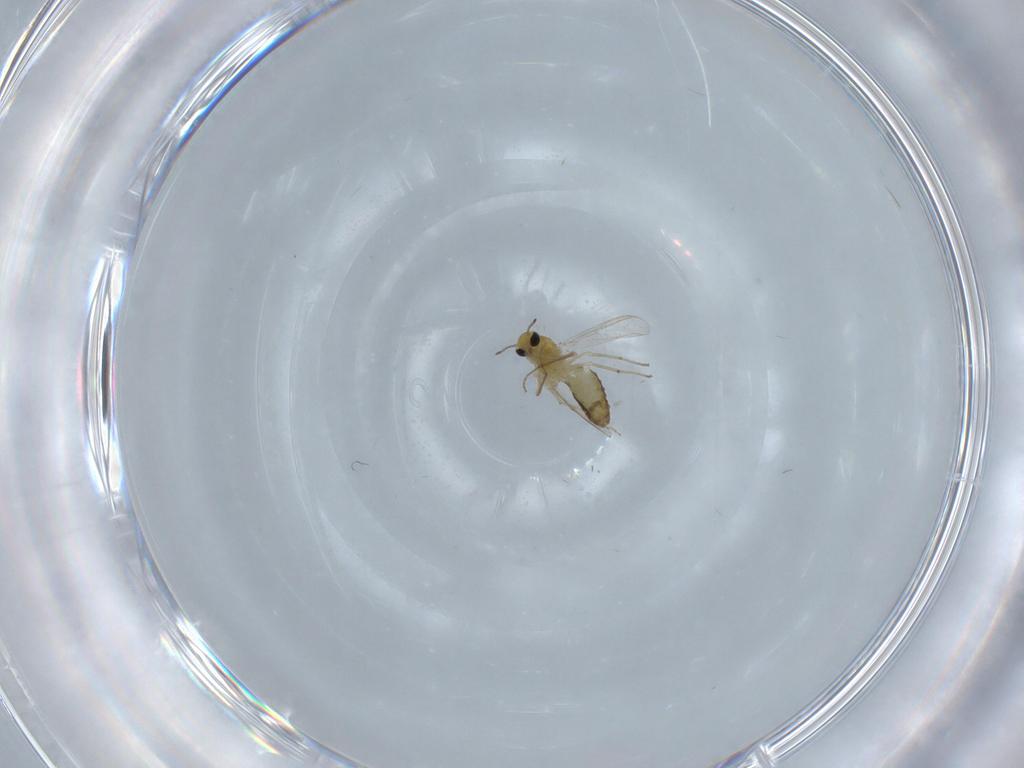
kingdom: Animalia
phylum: Arthropoda
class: Insecta
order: Diptera
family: Chironomidae
